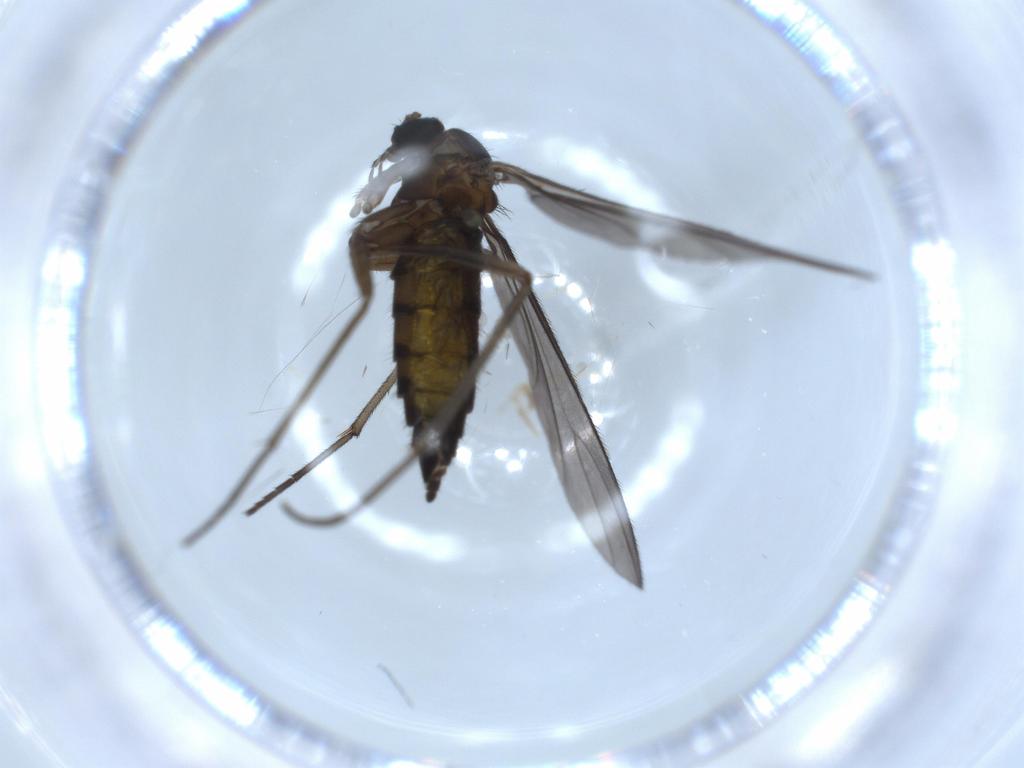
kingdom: Animalia
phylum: Arthropoda
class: Insecta
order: Diptera
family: Sciaridae
